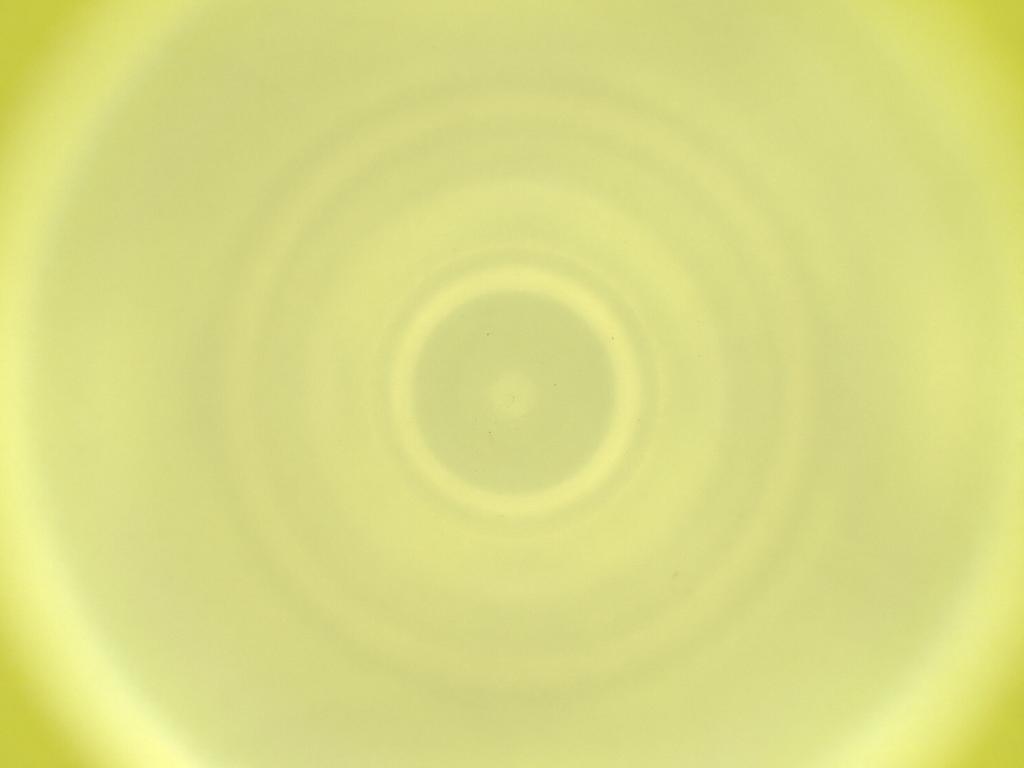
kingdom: Animalia
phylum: Arthropoda
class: Insecta
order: Diptera
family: Cecidomyiidae
